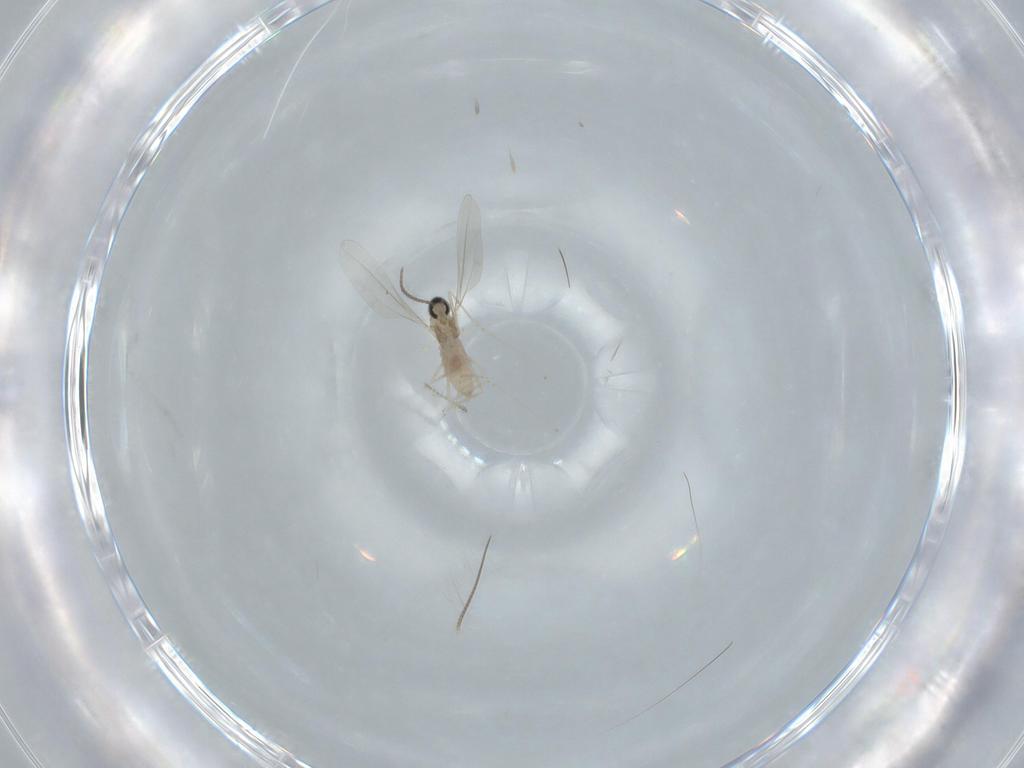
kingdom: Animalia
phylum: Arthropoda
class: Insecta
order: Diptera
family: Cecidomyiidae
